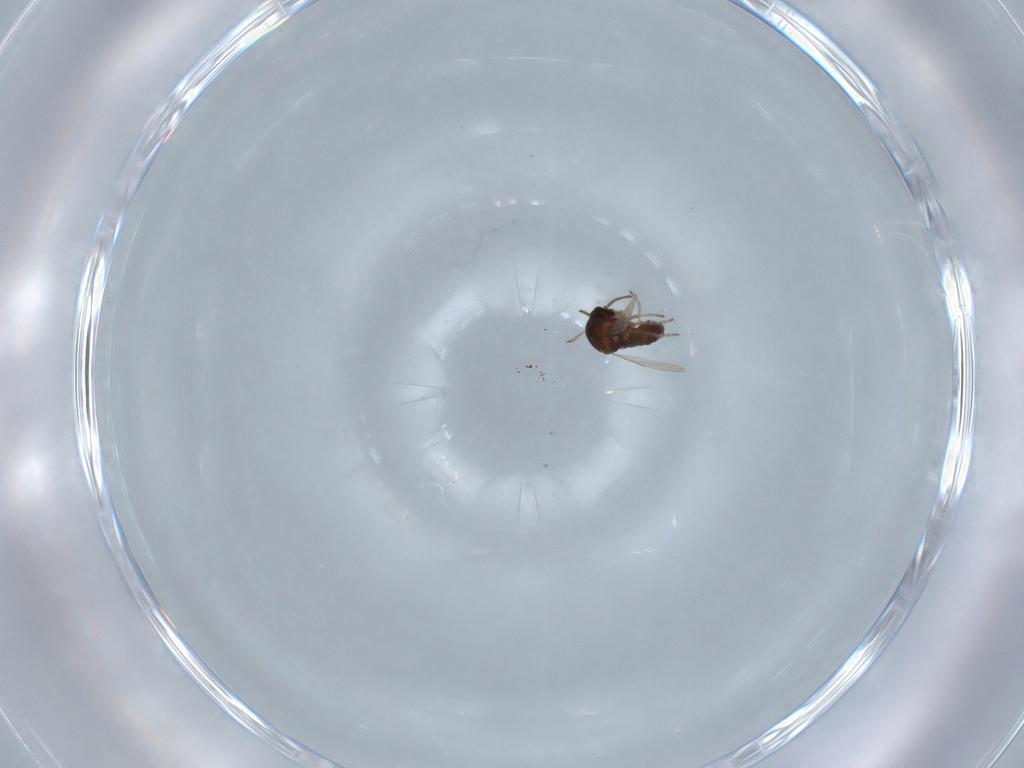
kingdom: Animalia
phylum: Arthropoda
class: Insecta
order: Diptera
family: Ceratopogonidae
